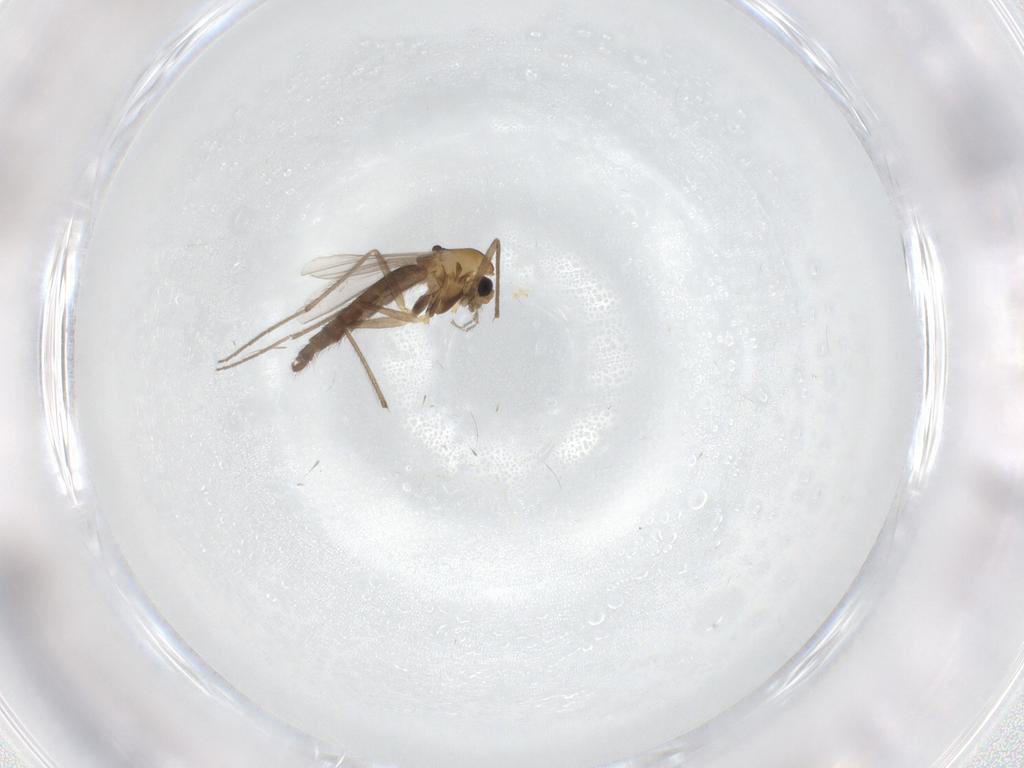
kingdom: Animalia
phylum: Arthropoda
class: Insecta
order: Diptera
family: Chironomidae
